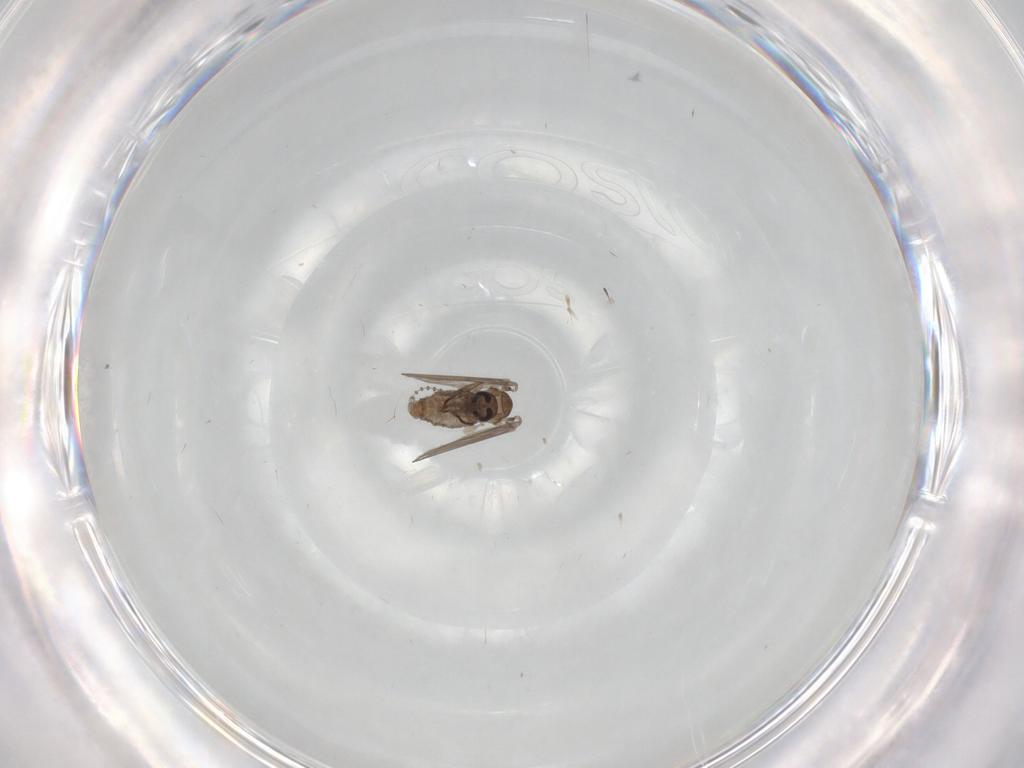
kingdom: Animalia
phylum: Arthropoda
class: Insecta
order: Diptera
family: Psychodidae
